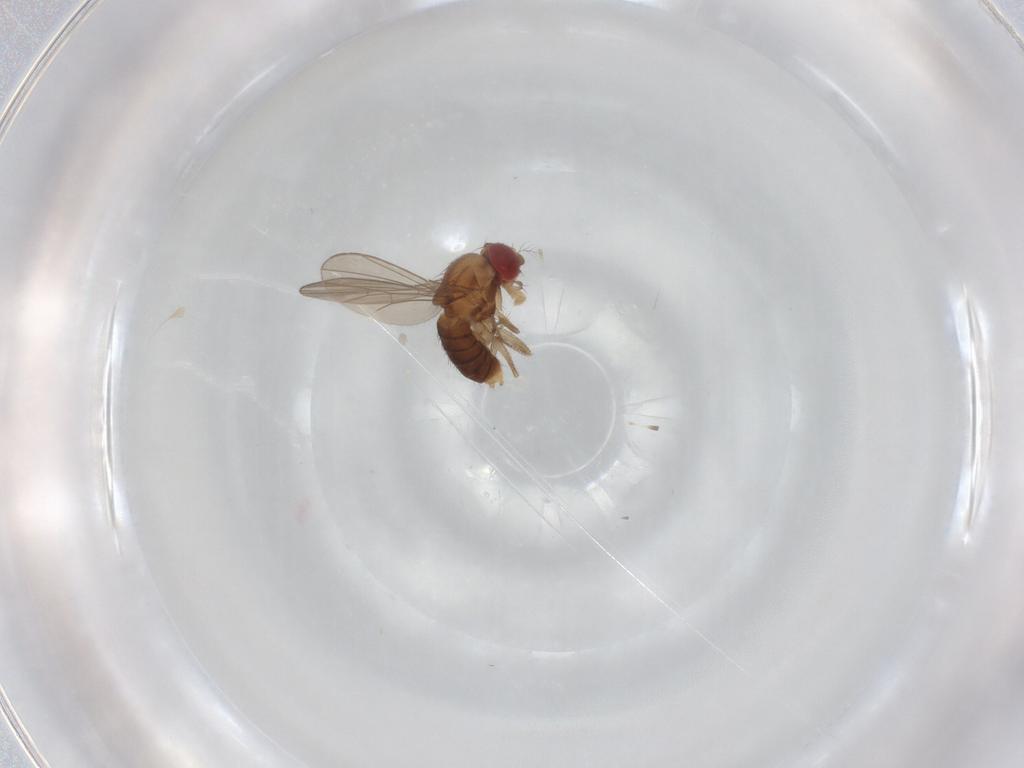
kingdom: Animalia
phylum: Arthropoda
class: Insecta
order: Diptera
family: Drosophilidae
